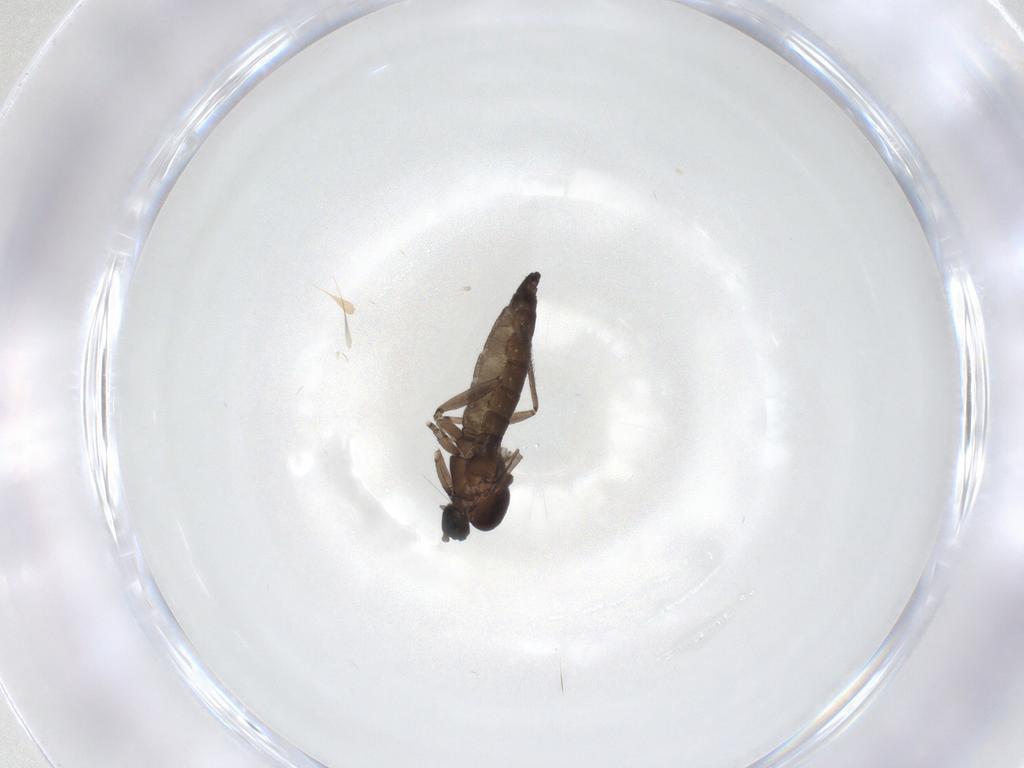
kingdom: Animalia
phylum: Arthropoda
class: Insecta
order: Diptera
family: Sciaridae
